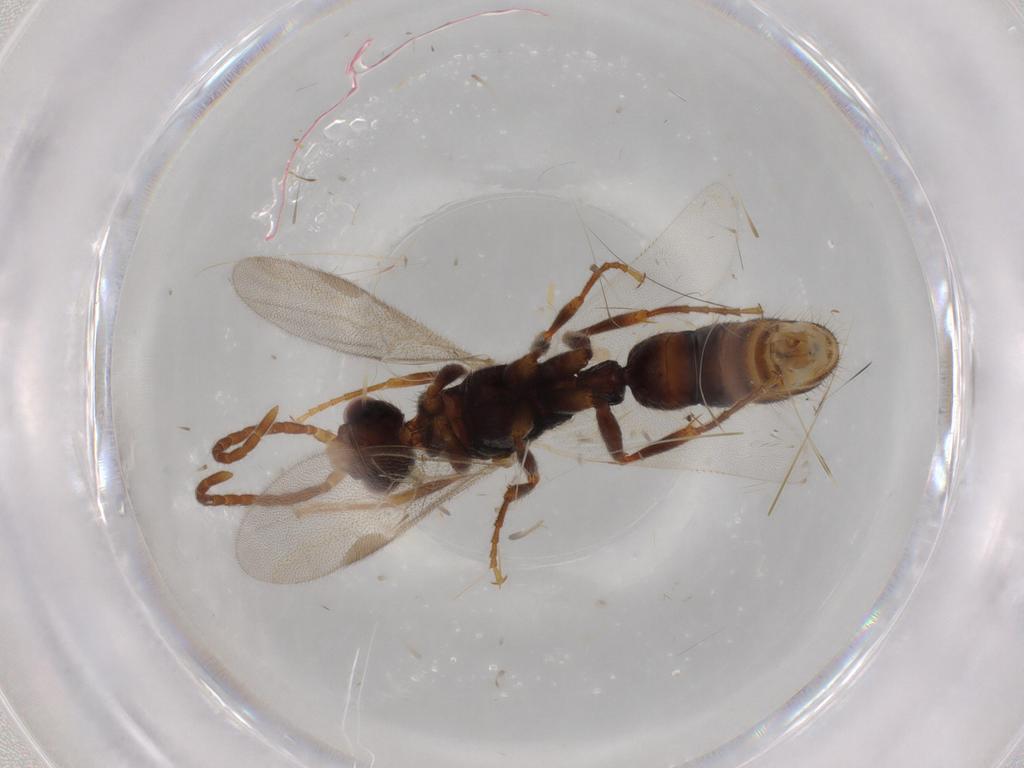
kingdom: Animalia
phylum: Arthropoda
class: Insecta
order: Hymenoptera
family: Formicidae
